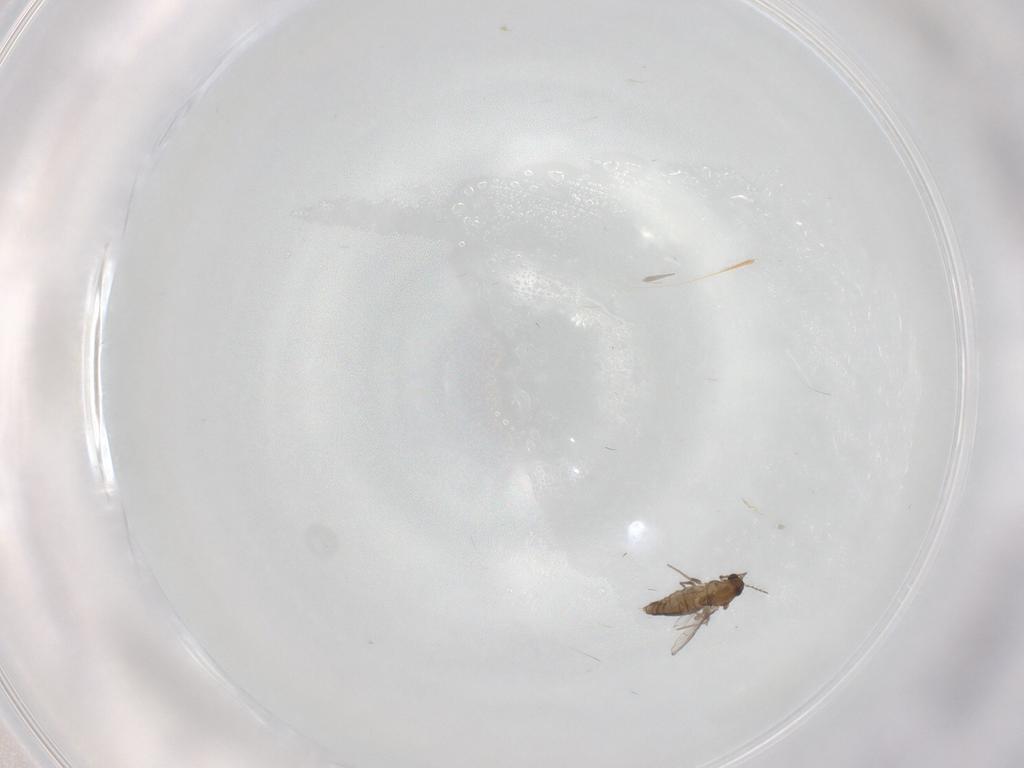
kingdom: Animalia
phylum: Arthropoda
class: Insecta
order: Diptera
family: Chironomidae
